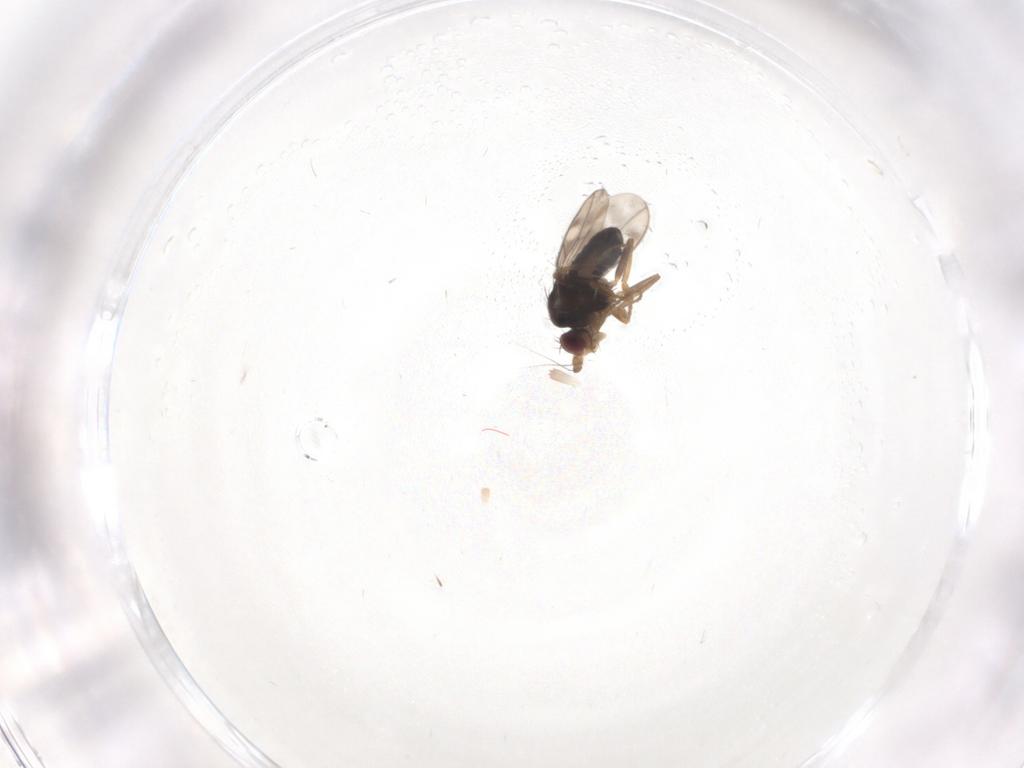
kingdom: Animalia
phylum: Arthropoda
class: Insecta
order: Diptera
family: Sphaeroceridae
